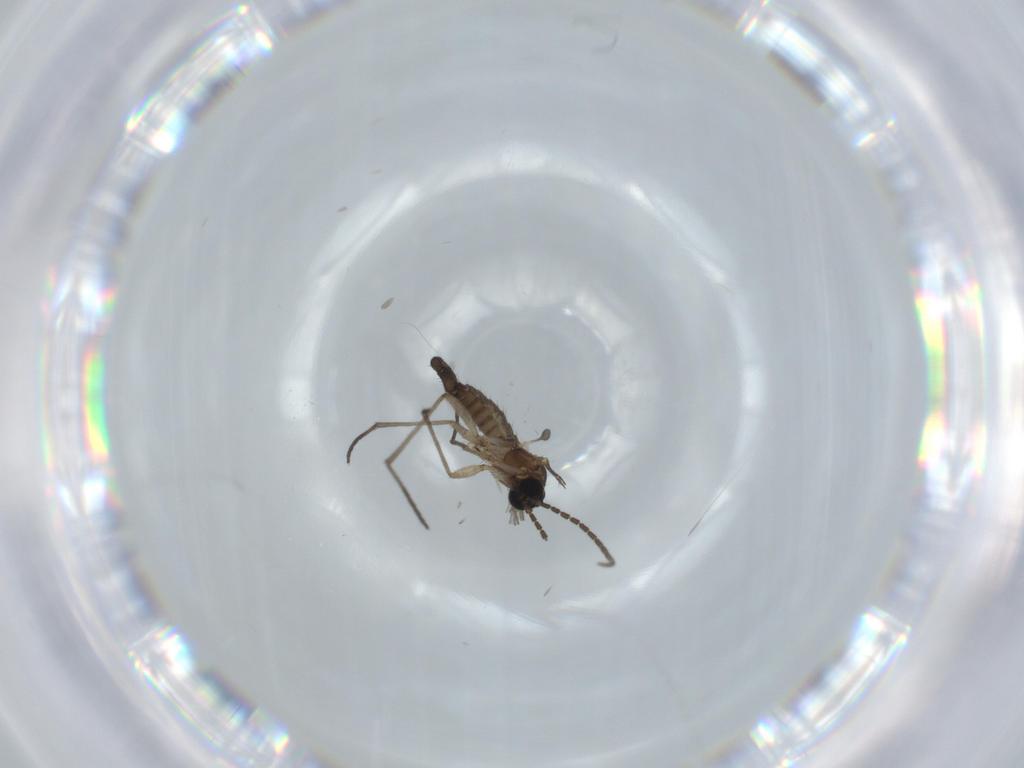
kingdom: Animalia
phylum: Arthropoda
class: Insecta
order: Diptera
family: Sciaridae
